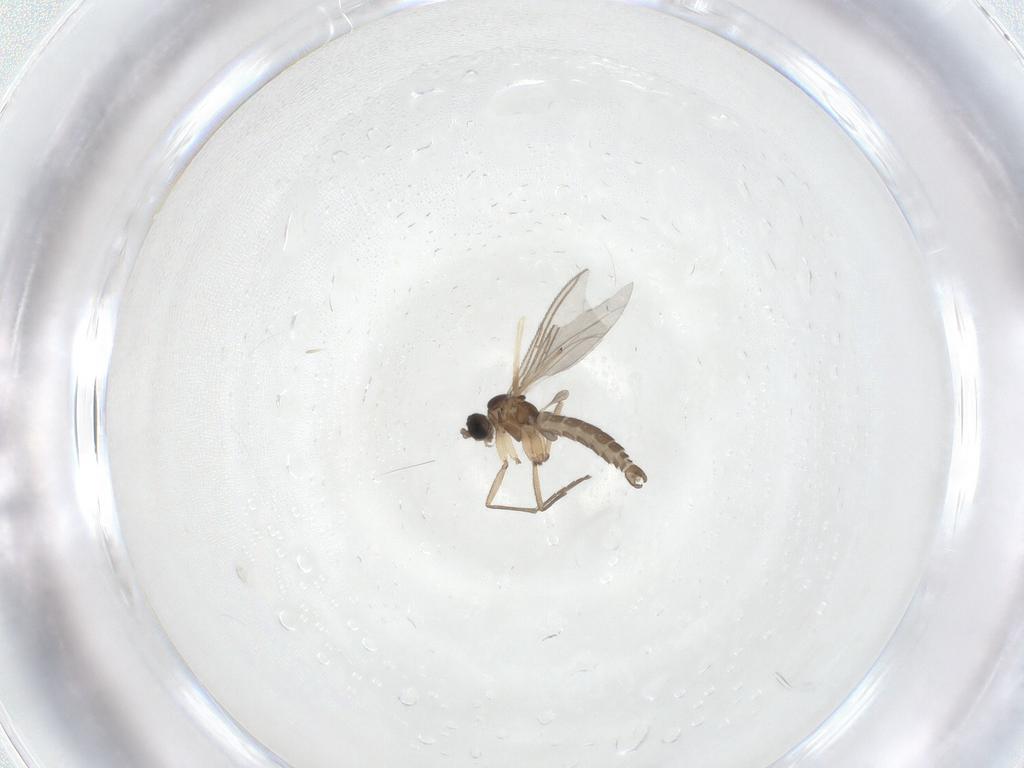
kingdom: Animalia
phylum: Arthropoda
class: Insecta
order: Diptera
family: Sciaridae
